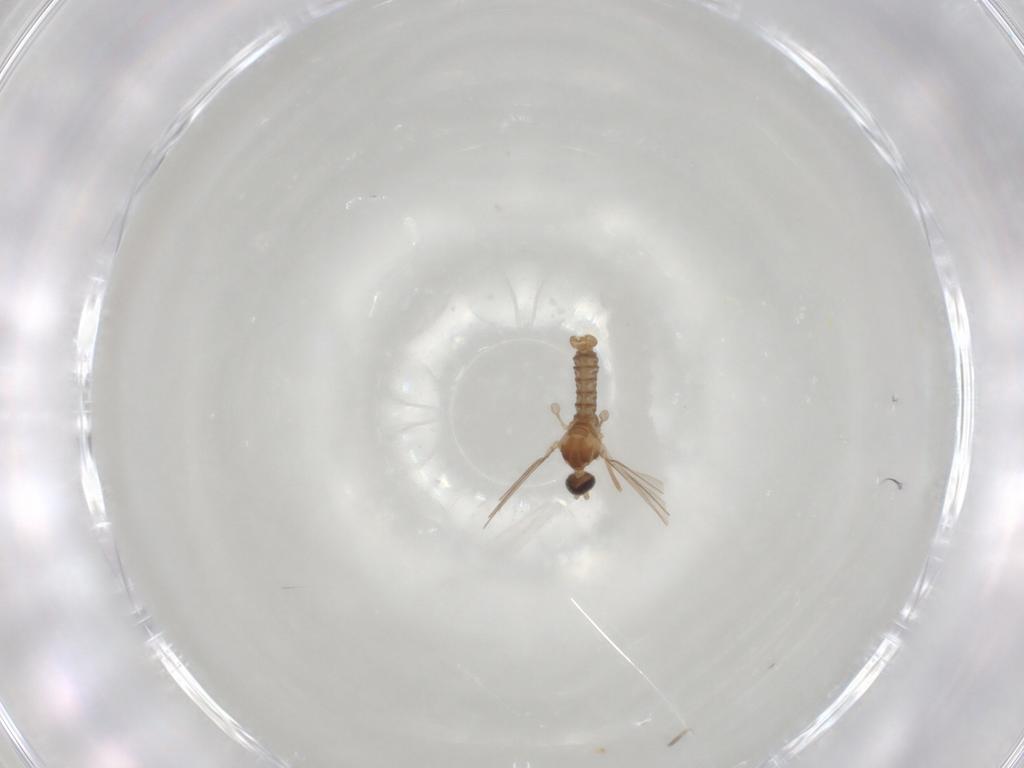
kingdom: Animalia
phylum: Arthropoda
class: Insecta
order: Diptera
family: Cecidomyiidae
